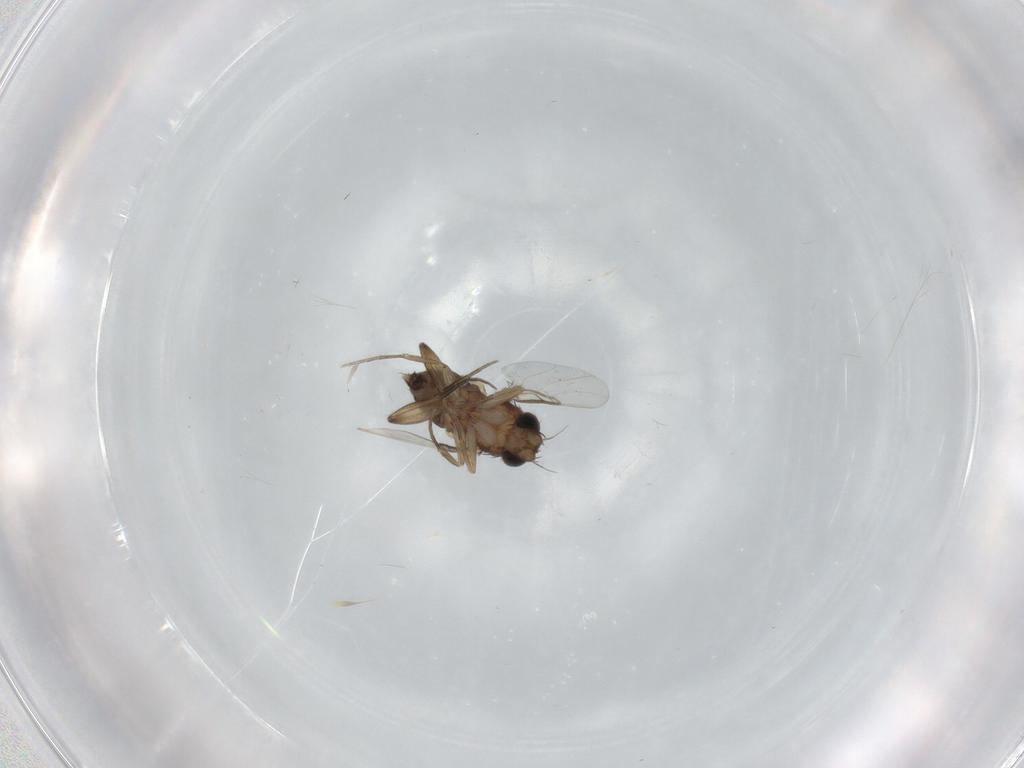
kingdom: Animalia
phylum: Arthropoda
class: Insecta
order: Diptera
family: Phoridae
